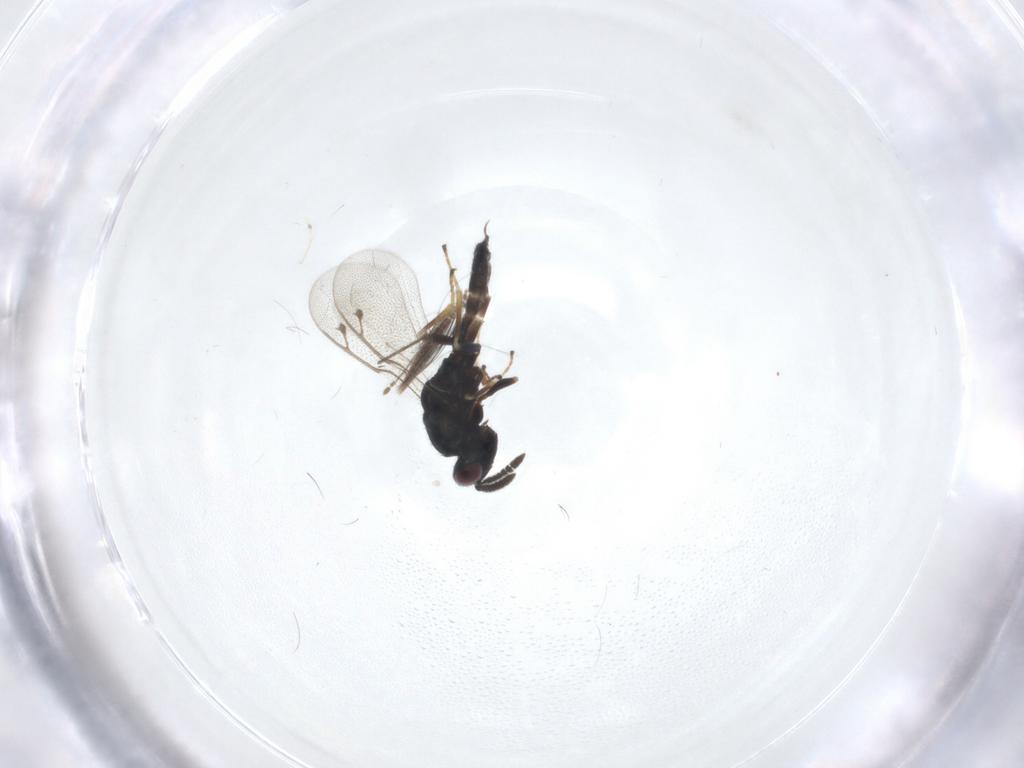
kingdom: Animalia
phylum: Arthropoda
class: Insecta
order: Hymenoptera
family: Pteromalidae
